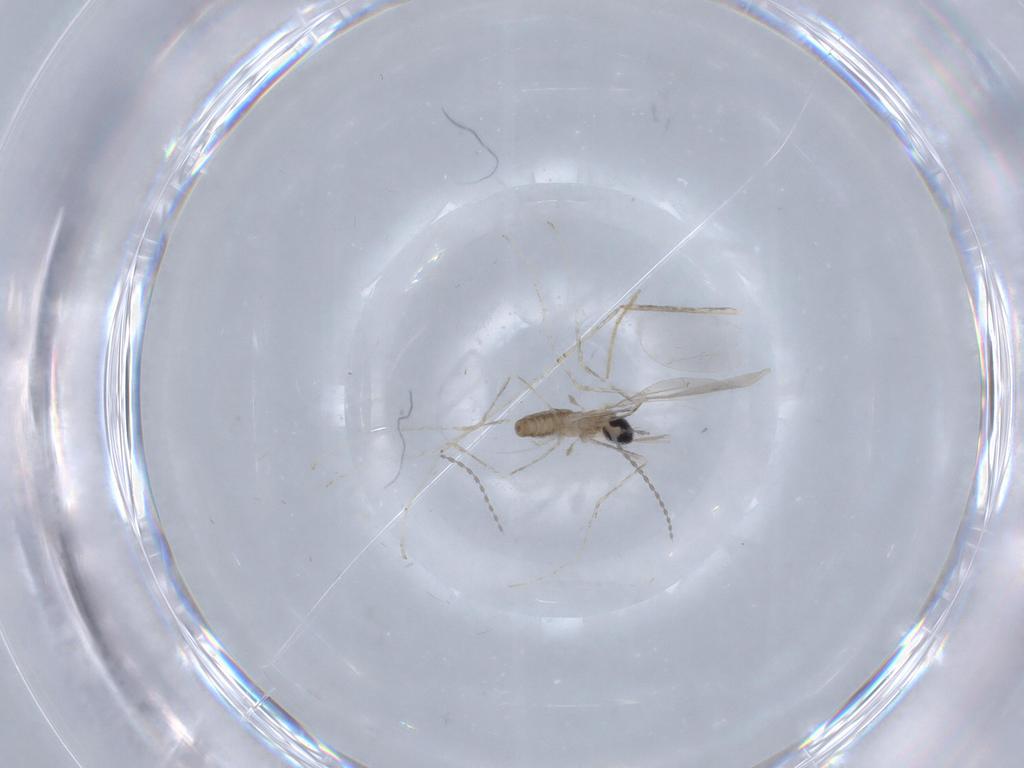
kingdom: Animalia
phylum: Arthropoda
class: Insecta
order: Diptera
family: Cecidomyiidae
